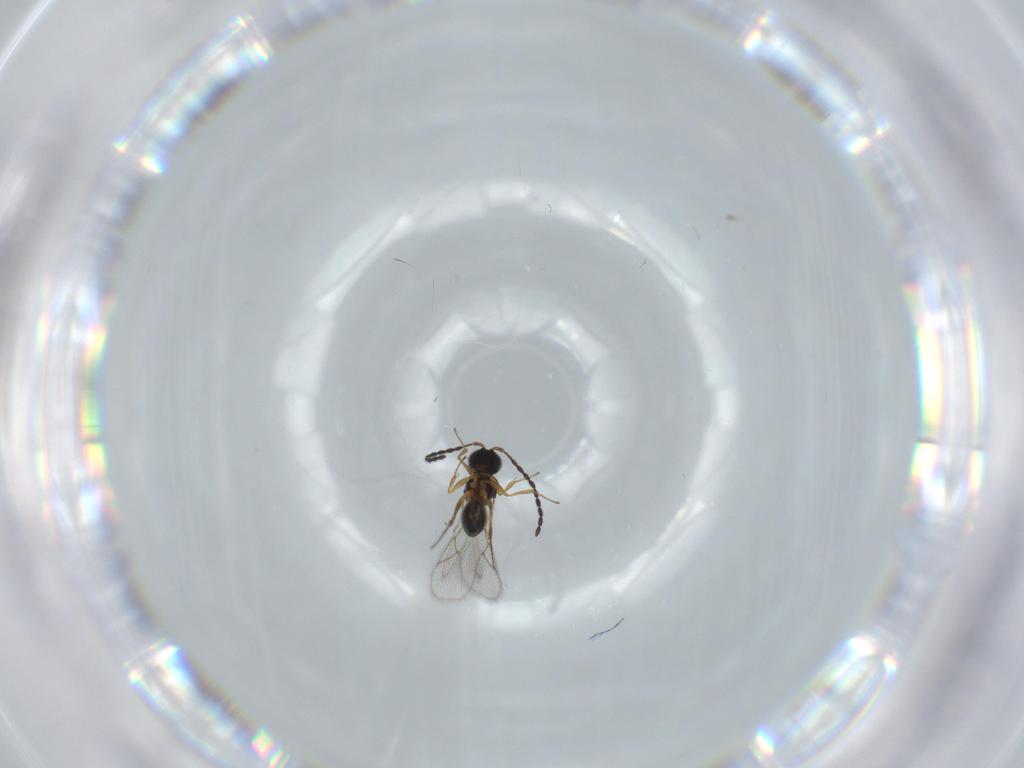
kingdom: Animalia
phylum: Arthropoda
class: Insecta
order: Hymenoptera
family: Figitidae
